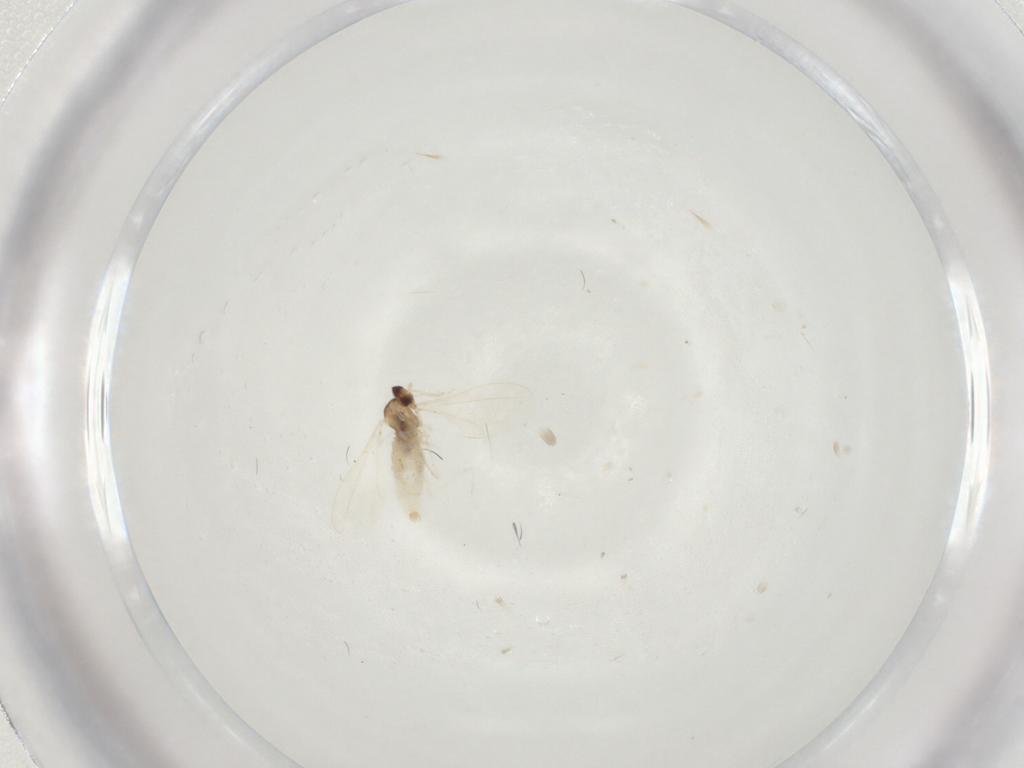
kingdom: Animalia
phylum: Arthropoda
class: Insecta
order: Diptera
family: Cecidomyiidae
